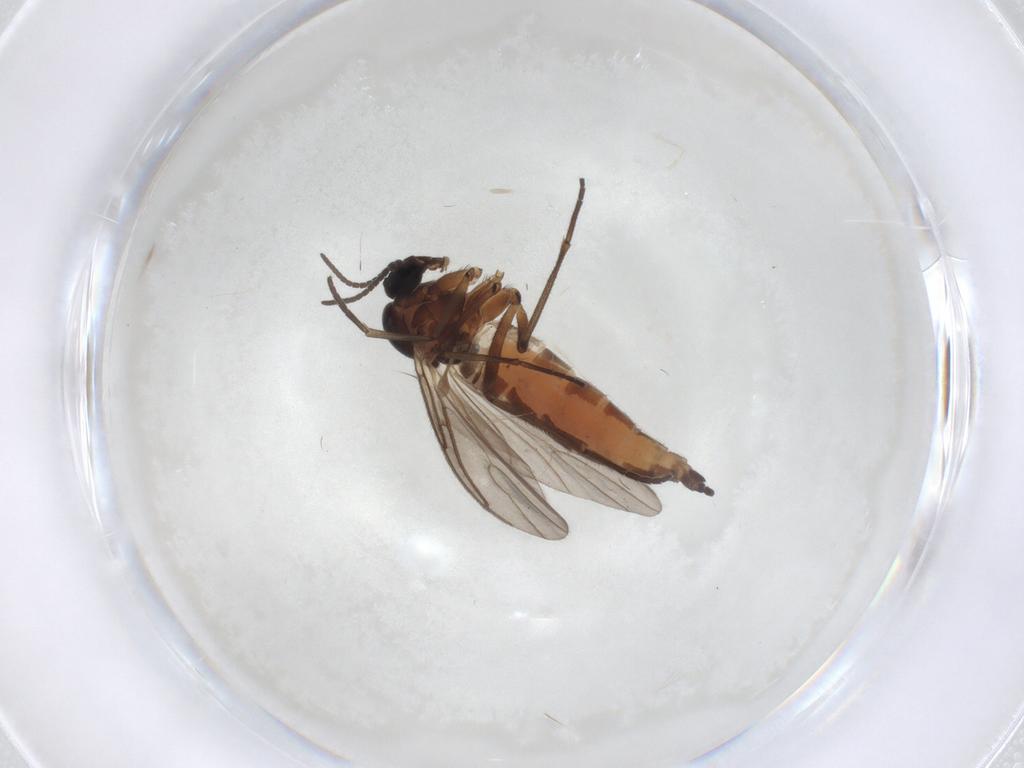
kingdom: Animalia
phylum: Arthropoda
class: Insecta
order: Diptera
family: Sciaridae
